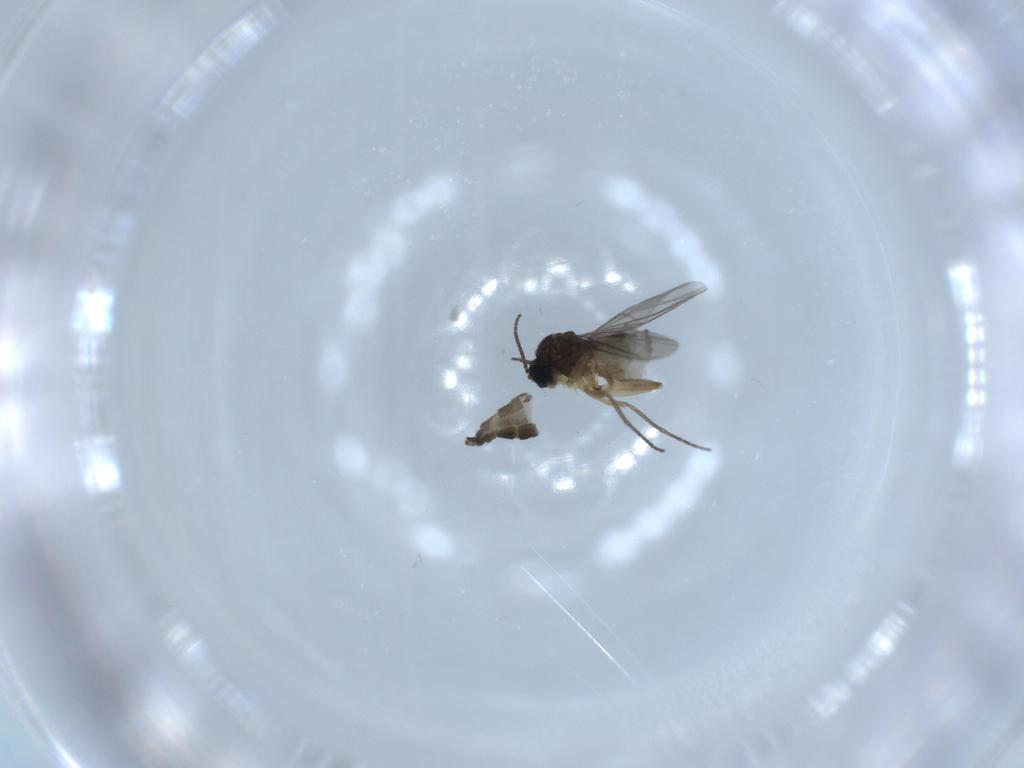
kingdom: Animalia
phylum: Arthropoda
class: Insecta
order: Diptera
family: Sciaridae
